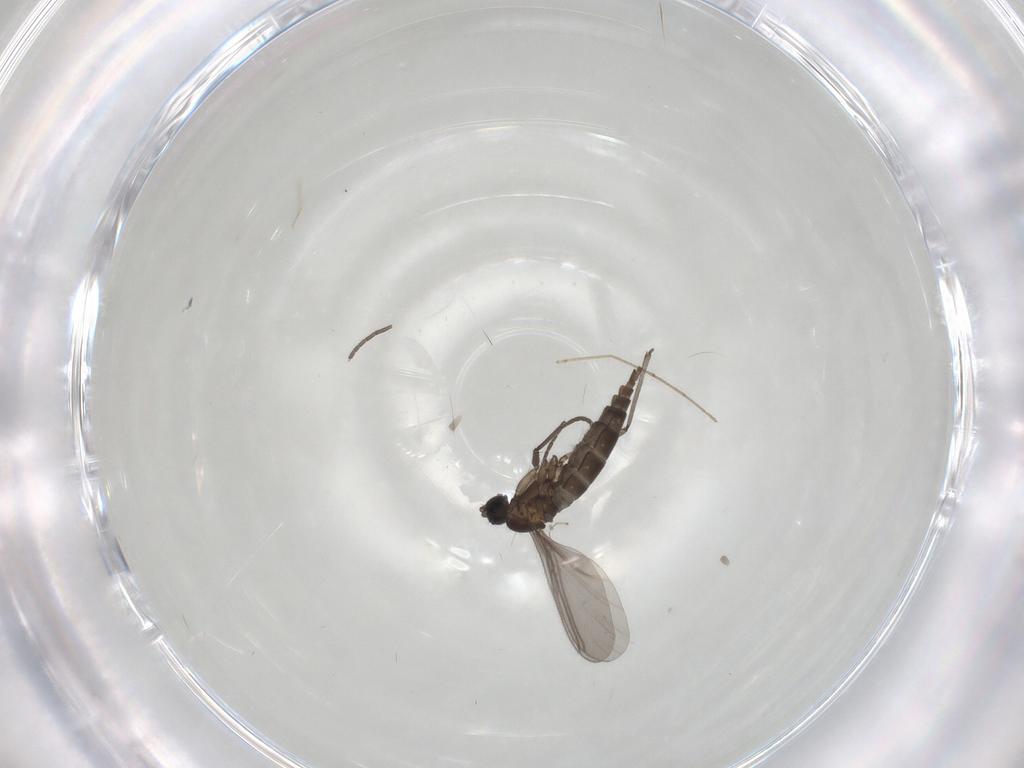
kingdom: Animalia
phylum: Arthropoda
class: Insecta
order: Diptera
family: Sciaridae
